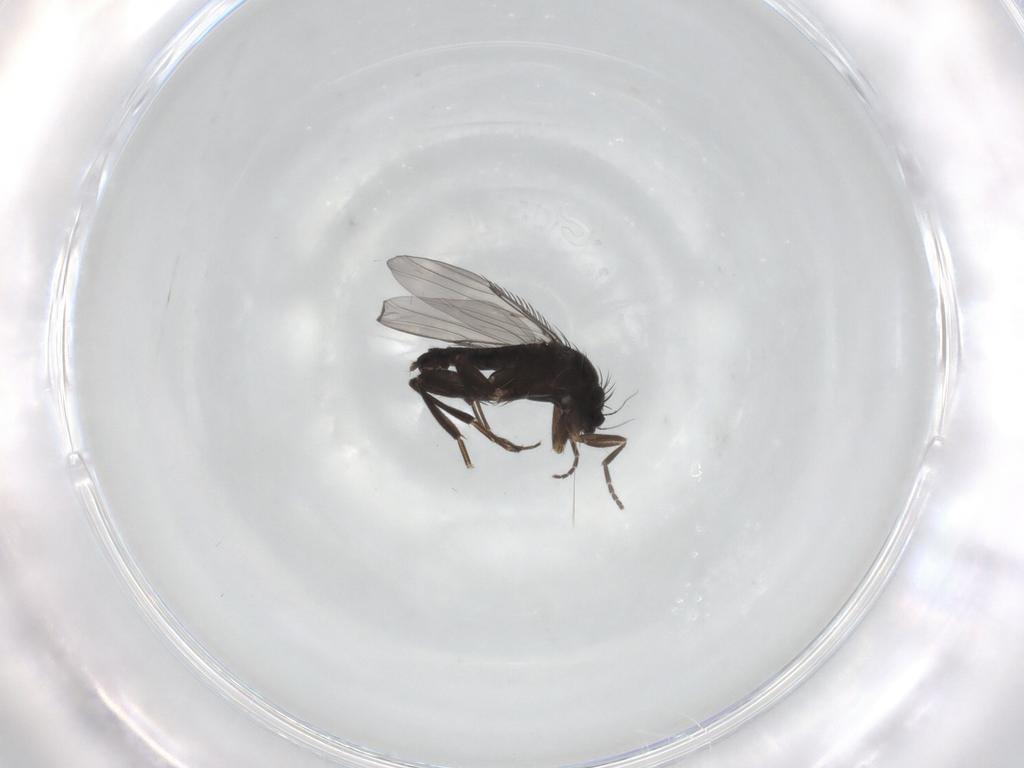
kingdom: Animalia
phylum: Arthropoda
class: Insecta
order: Diptera
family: Phoridae
